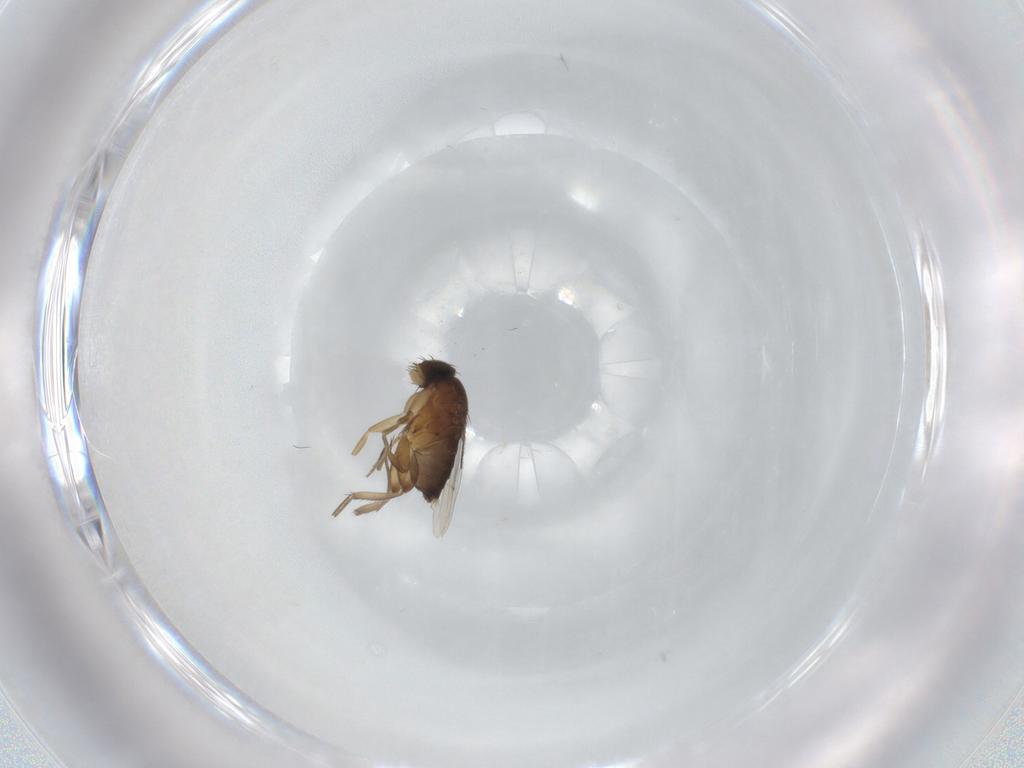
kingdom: Animalia
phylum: Arthropoda
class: Insecta
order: Diptera
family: Phoridae
